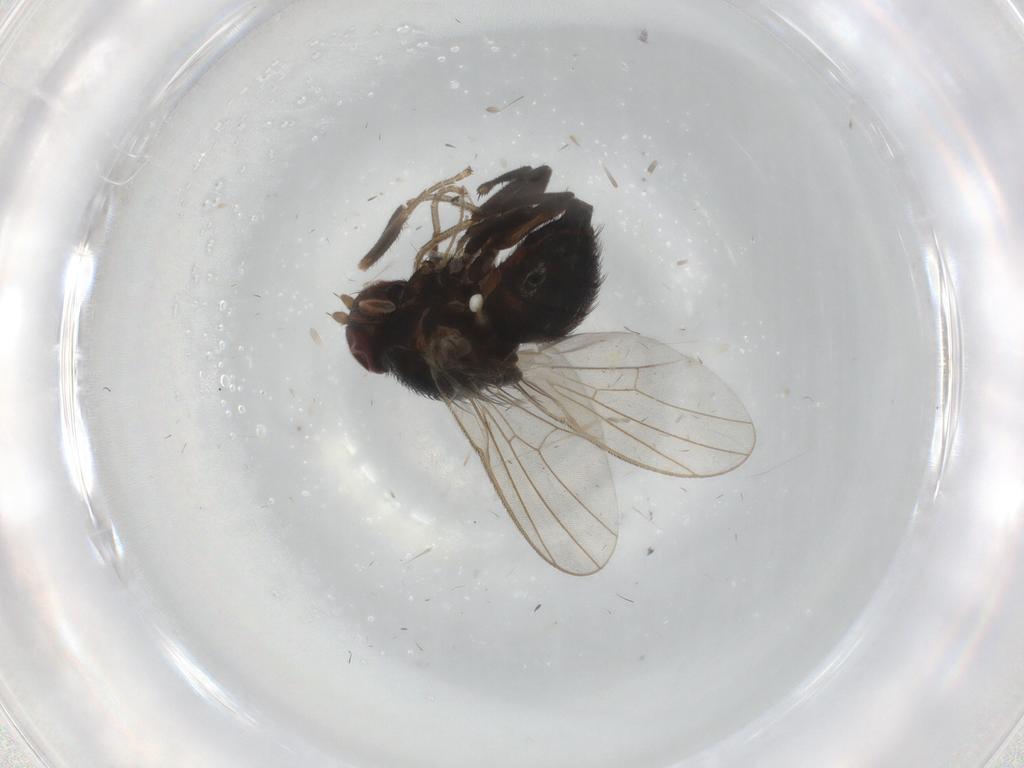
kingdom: Animalia
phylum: Arthropoda
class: Insecta
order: Diptera
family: Agromyzidae
